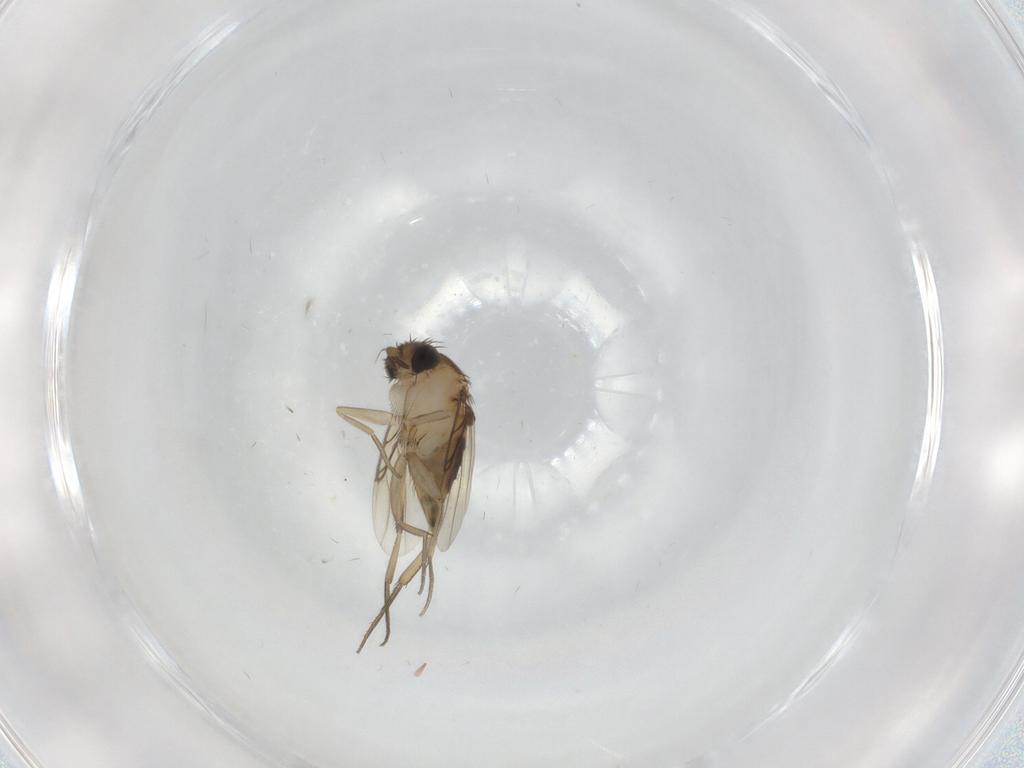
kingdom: Animalia
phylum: Arthropoda
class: Insecta
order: Diptera
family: Phoridae
